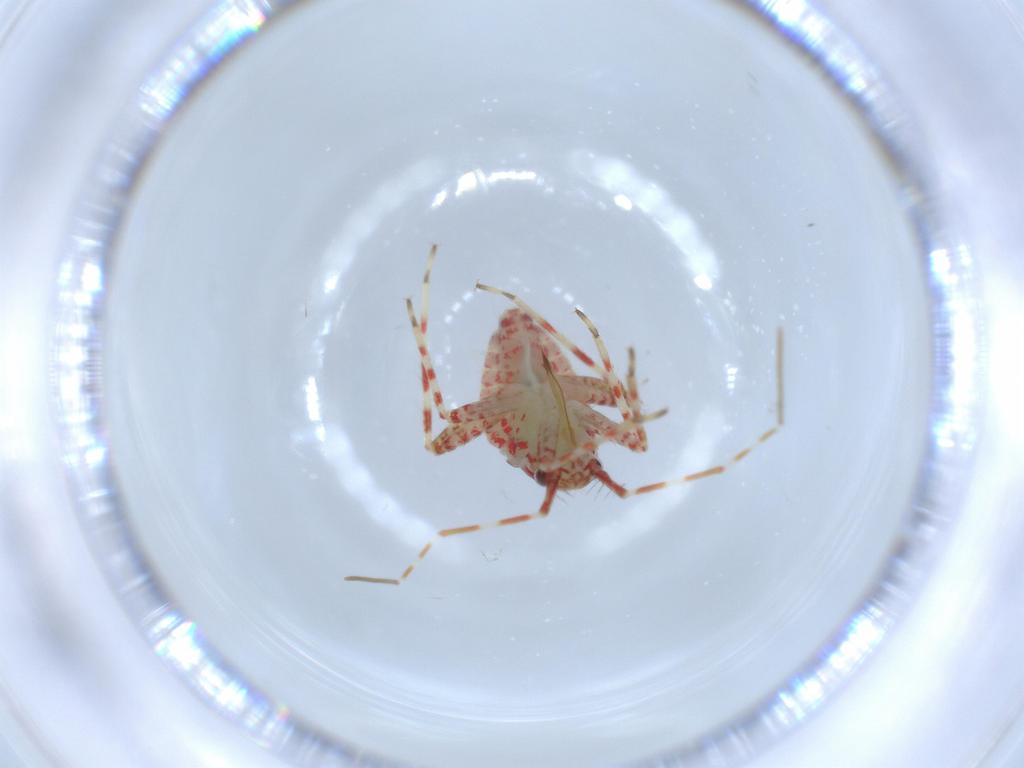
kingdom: Animalia
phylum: Arthropoda
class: Insecta
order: Hemiptera
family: Miridae
